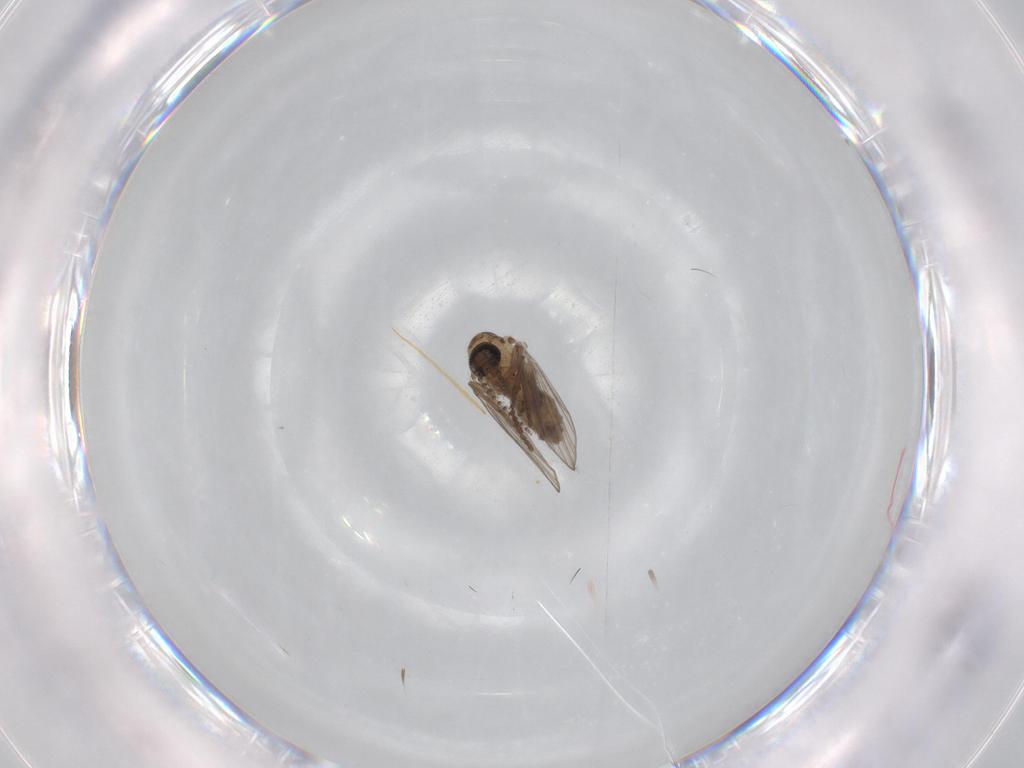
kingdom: Animalia
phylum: Arthropoda
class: Insecta
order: Diptera
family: Psychodidae
